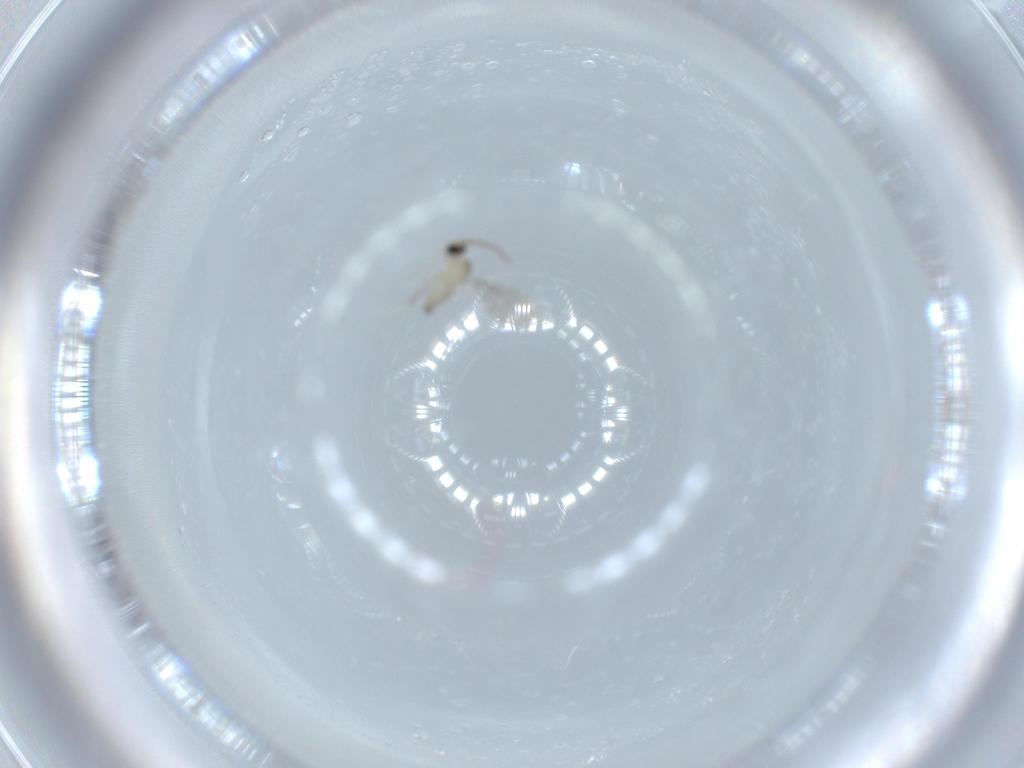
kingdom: Animalia
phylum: Arthropoda
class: Insecta
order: Diptera
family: Cecidomyiidae
